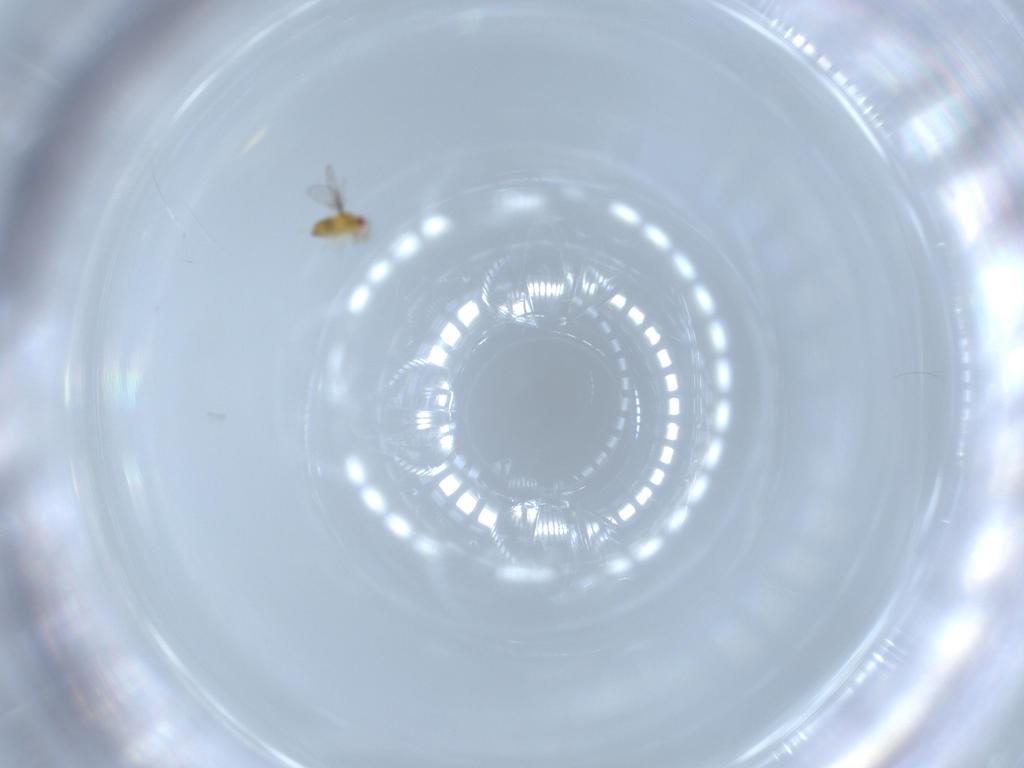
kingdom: Animalia
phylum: Arthropoda
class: Insecta
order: Hymenoptera
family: Trichogrammatidae
